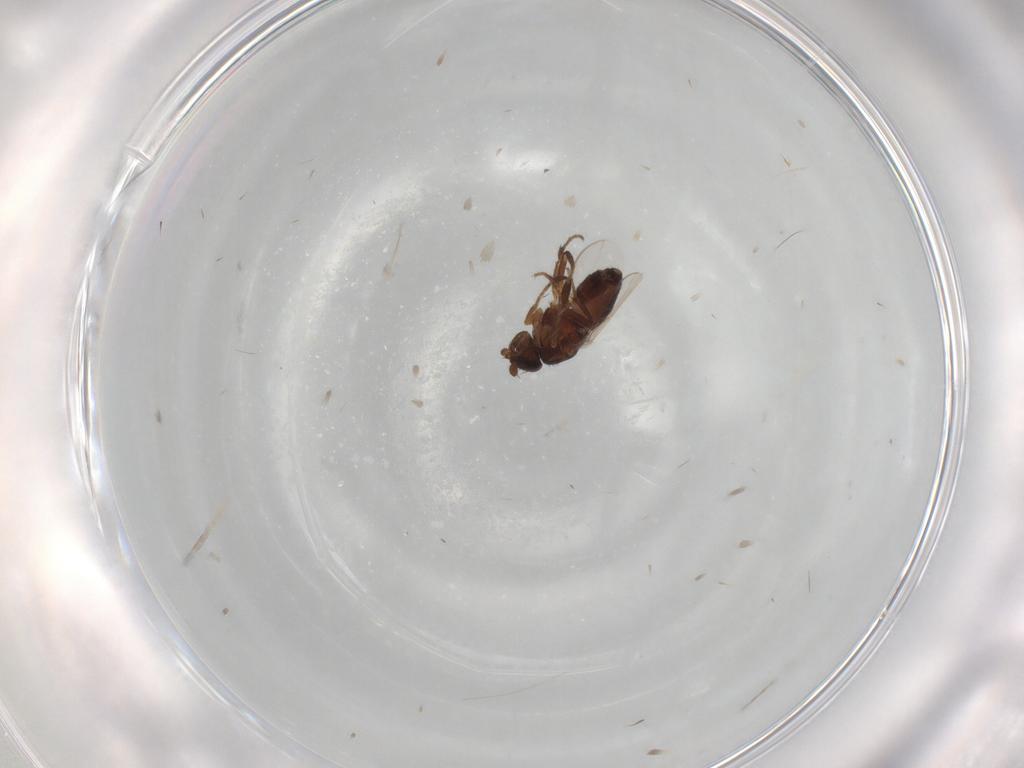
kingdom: Animalia
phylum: Arthropoda
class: Insecta
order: Diptera
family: Sphaeroceridae
